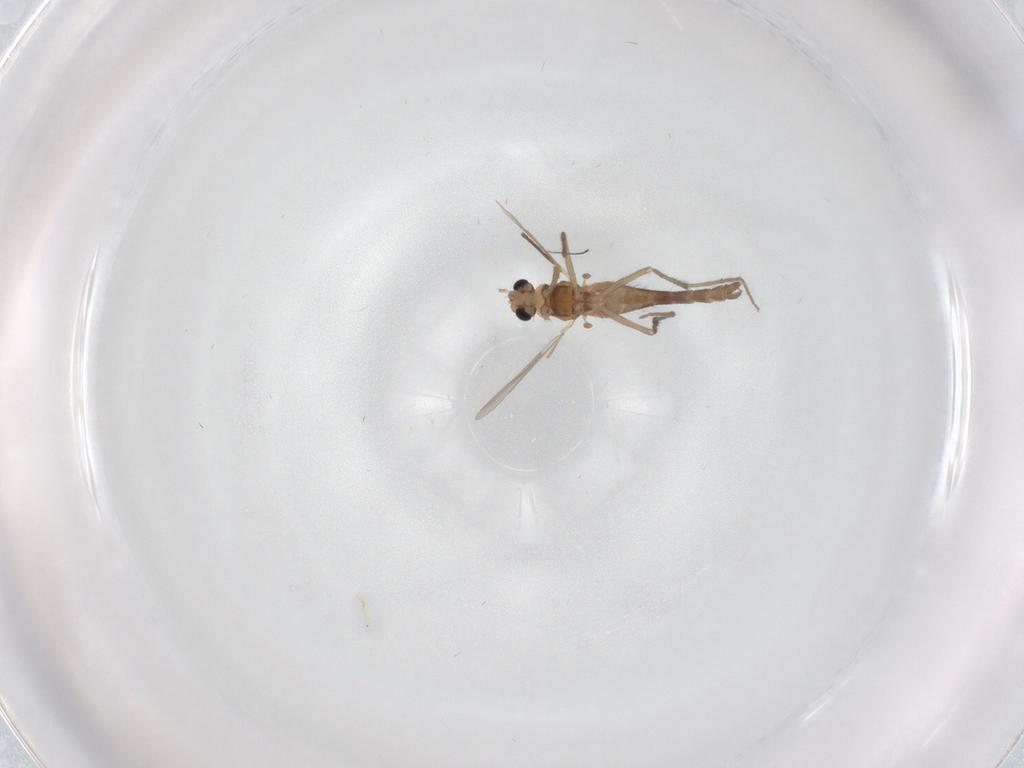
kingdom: Animalia
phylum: Arthropoda
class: Insecta
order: Diptera
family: Chironomidae
